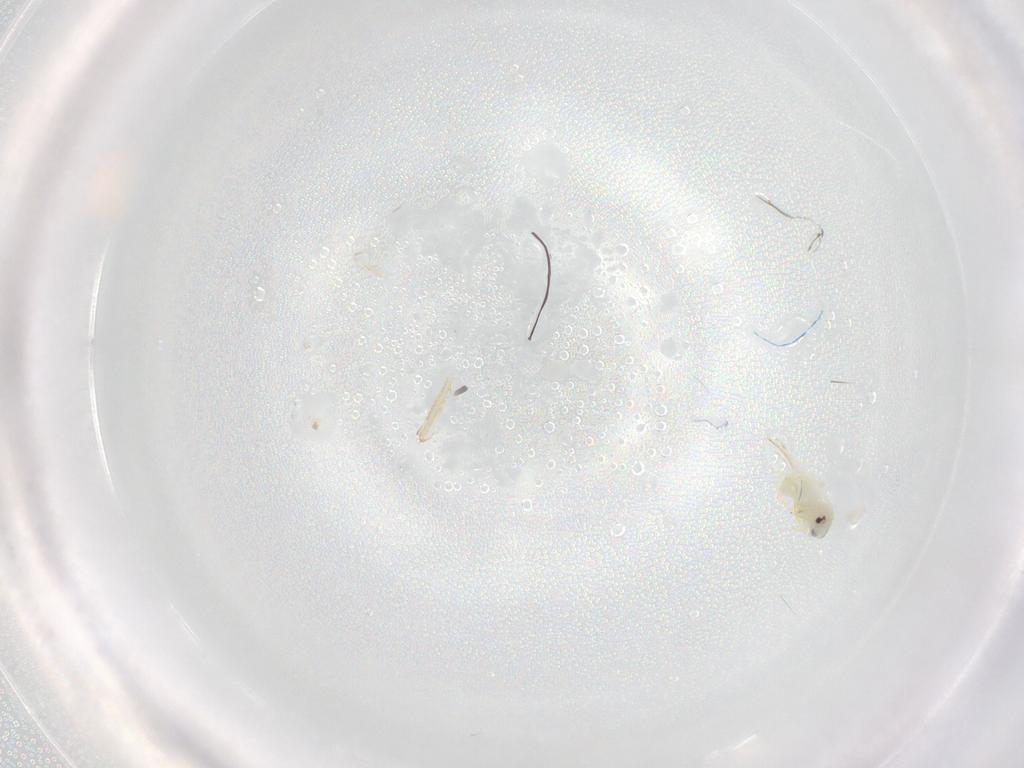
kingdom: Animalia
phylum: Arthropoda
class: Insecta
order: Hemiptera
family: Aleyrodidae
